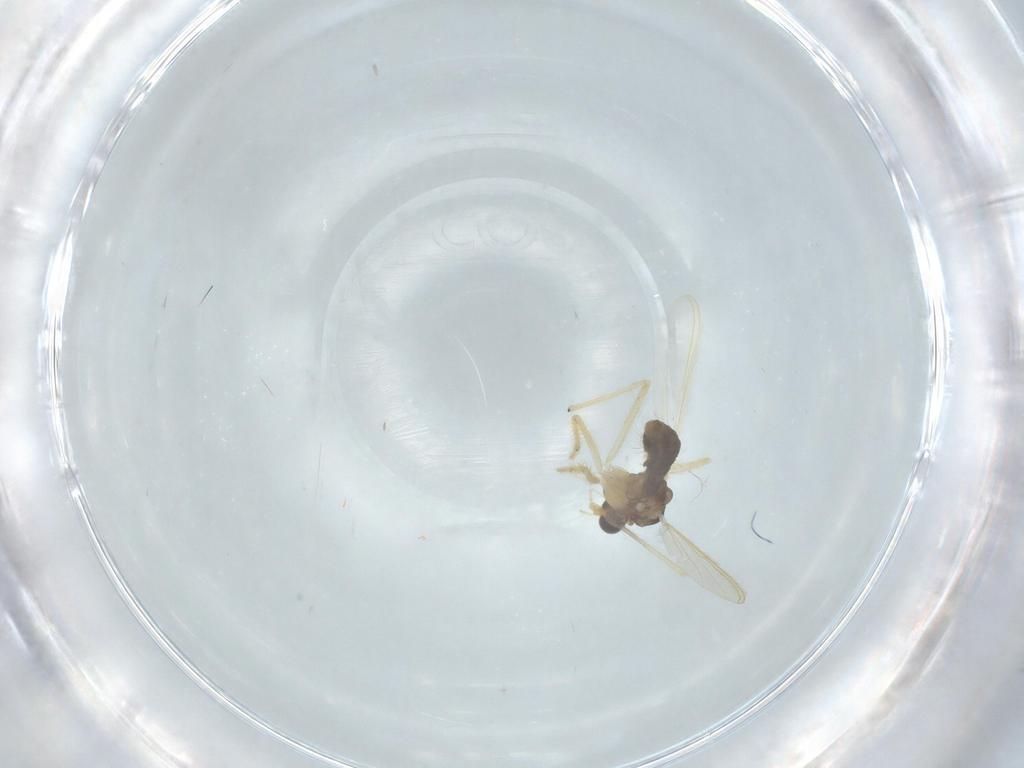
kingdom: Animalia
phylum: Arthropoda
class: Insecta
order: Diptera
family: Chironomidae
